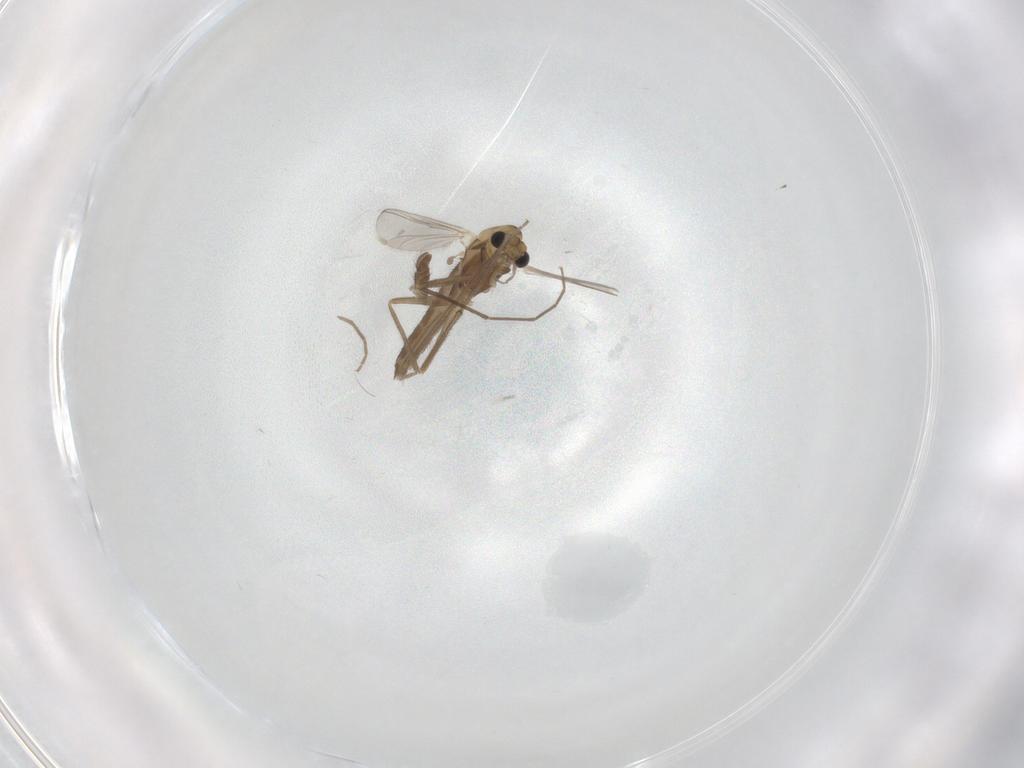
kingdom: Animalia
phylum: Arthropoda
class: Insecta
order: Diptera
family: Chironomidae
